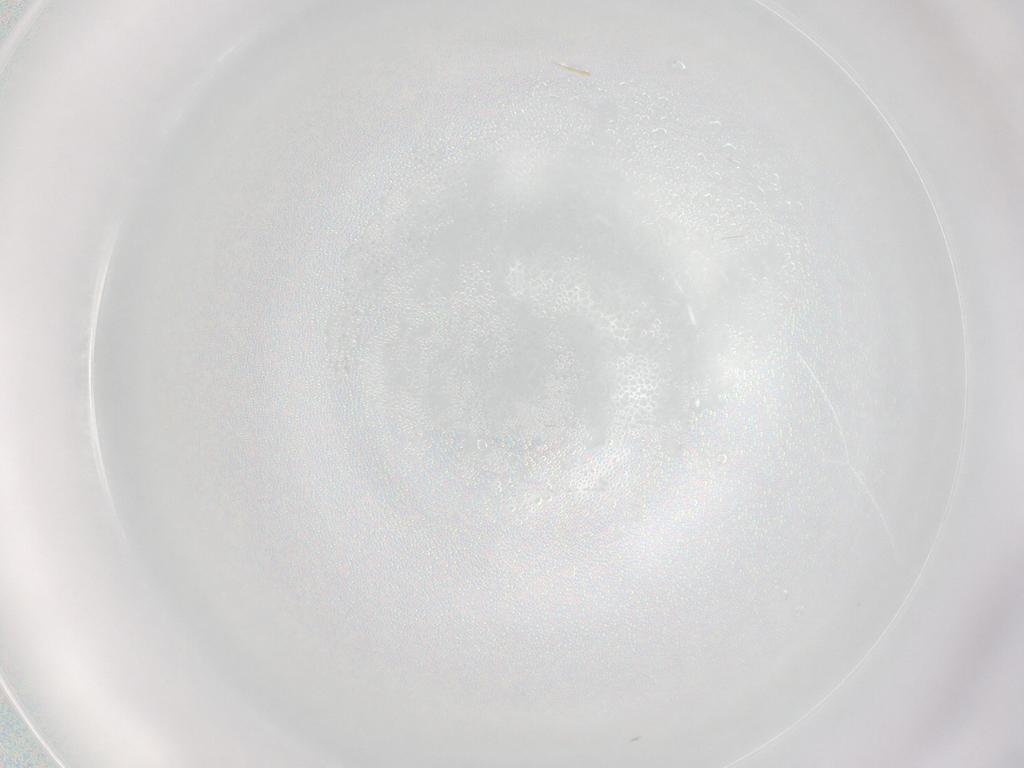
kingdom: Animalia
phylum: Arthropoda
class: Insecta
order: Diptera
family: Cecidomyiidae
